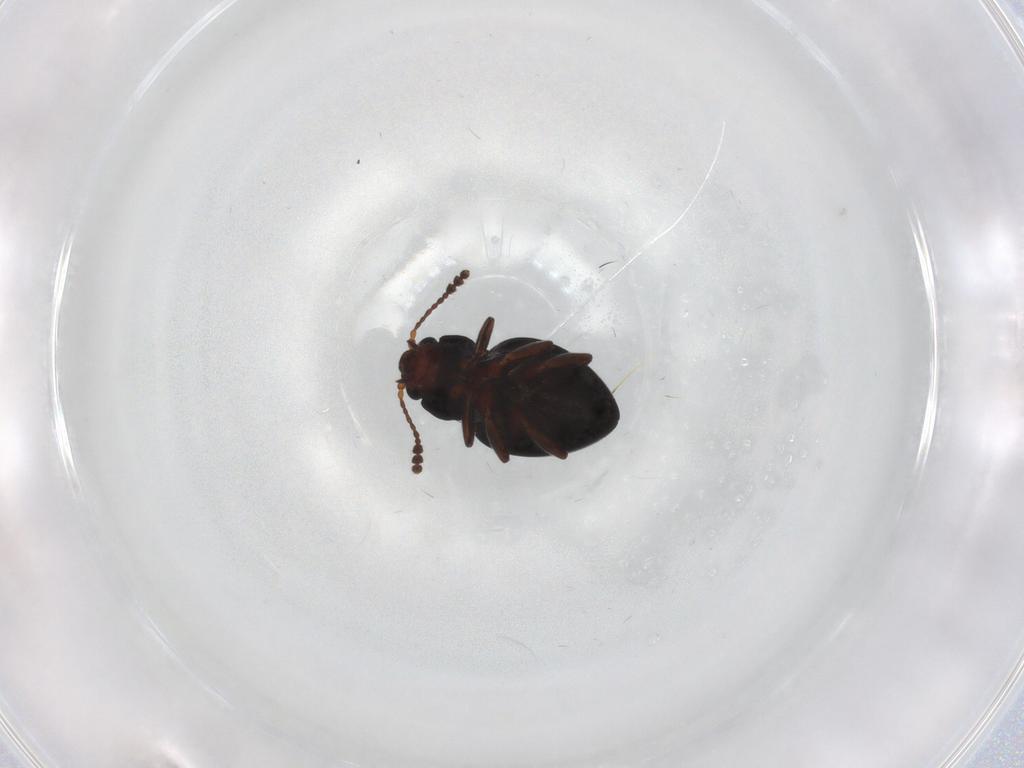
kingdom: Animalia
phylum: Arthropoda
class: Insecta
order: Coleoptera
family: Erotylidae
